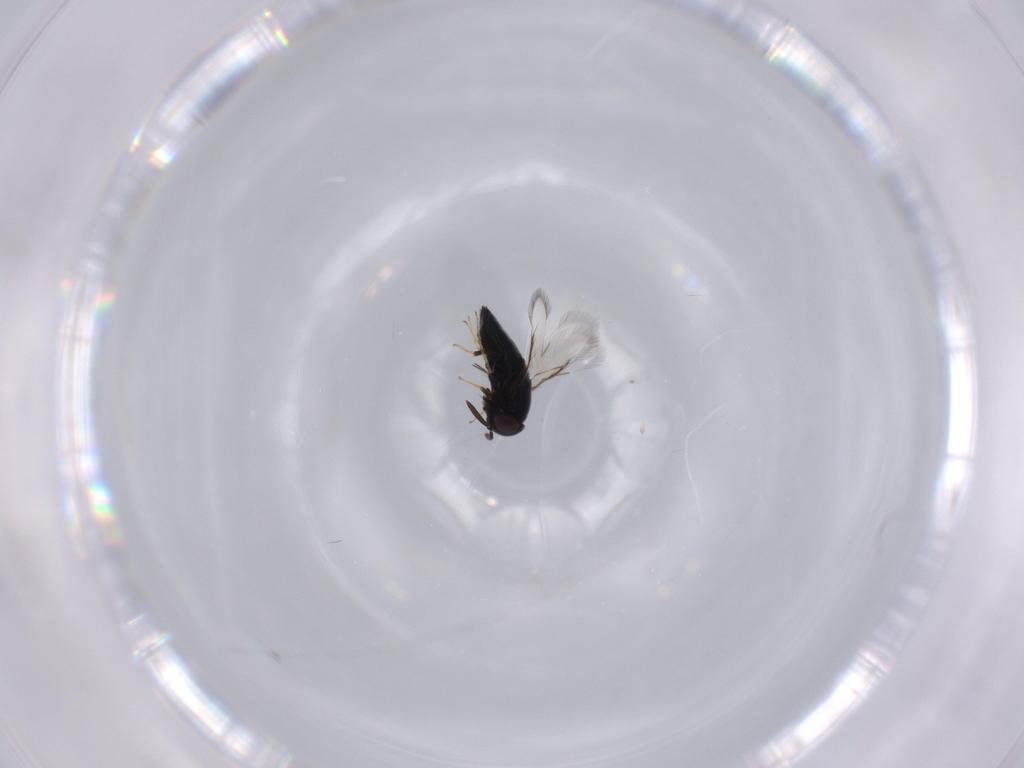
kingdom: Animalia
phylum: Arthropoda
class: Insecta
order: Hymenoptera
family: Signiphoridae
